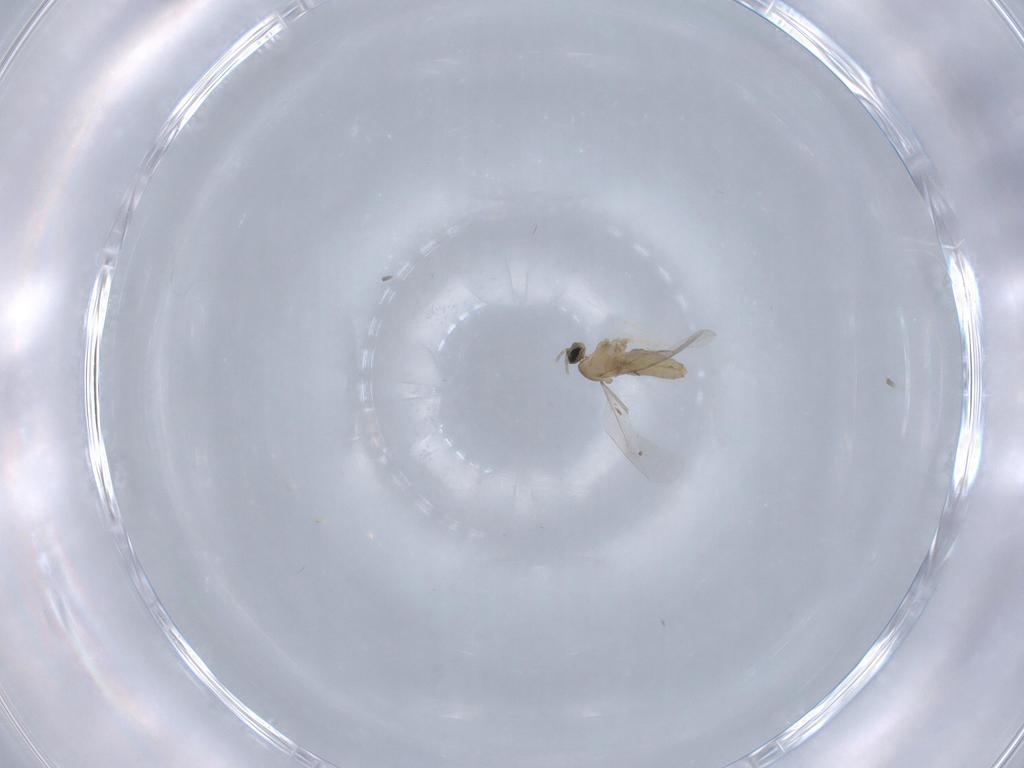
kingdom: Animalia
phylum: Arthropoda
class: Insecta
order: Diptera
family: Cecidomyiidae
